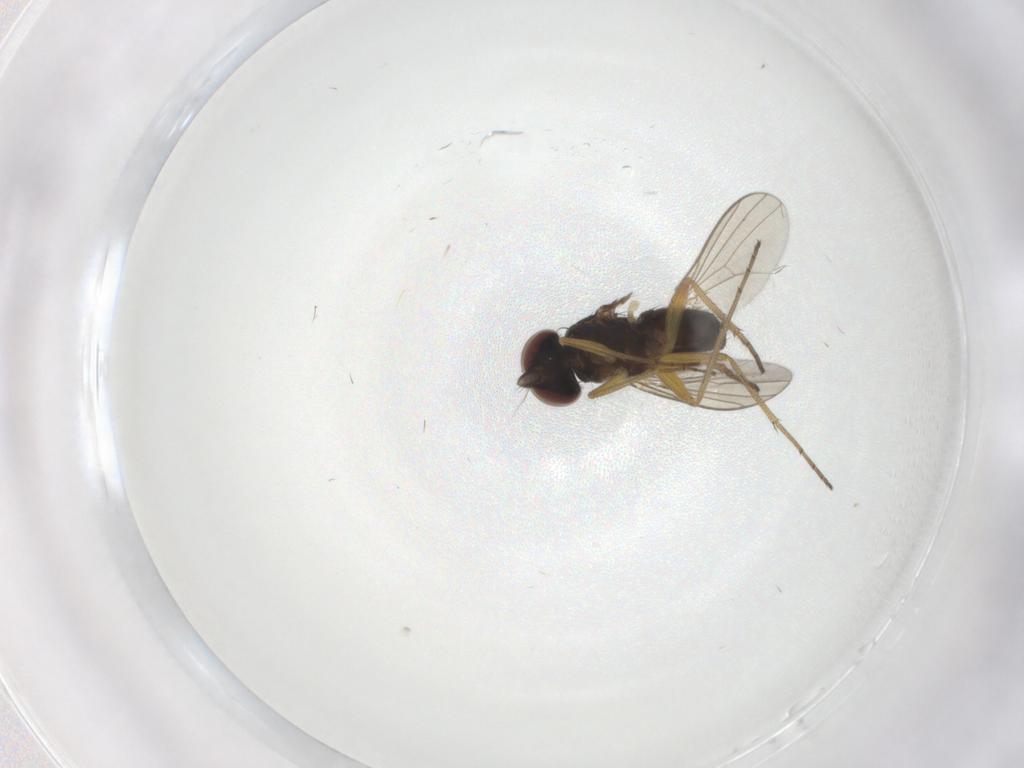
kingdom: Animalia
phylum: Arthropoda
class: Insecta
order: Diptera
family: Dolichopodidae
